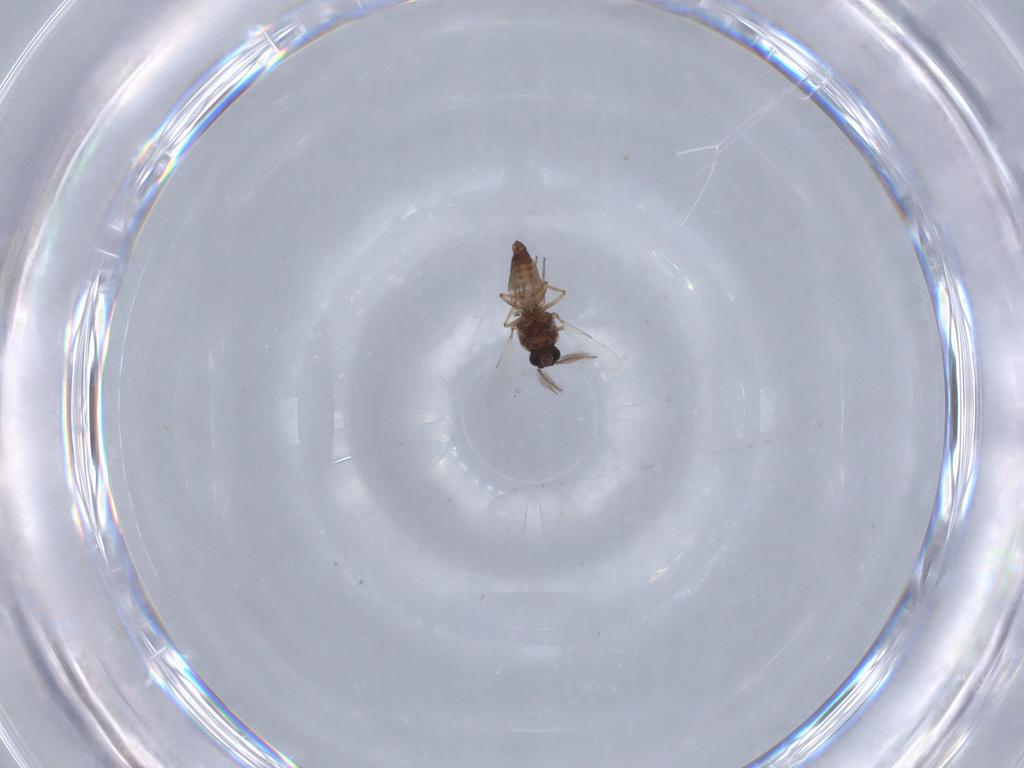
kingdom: Animalia
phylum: Arthropoda
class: Insecta
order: Diptera
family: Ceratopogonidae
